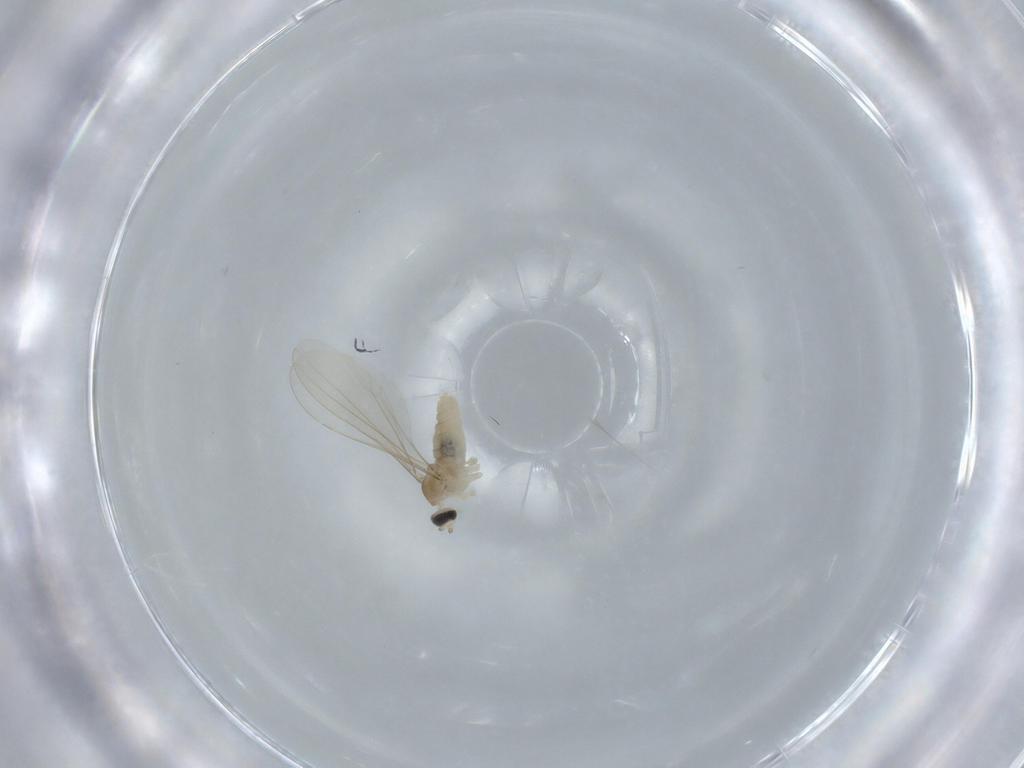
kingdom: Animalia
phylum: Arthropoda
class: Insecta
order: Diptera
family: Cecidomyiidae
